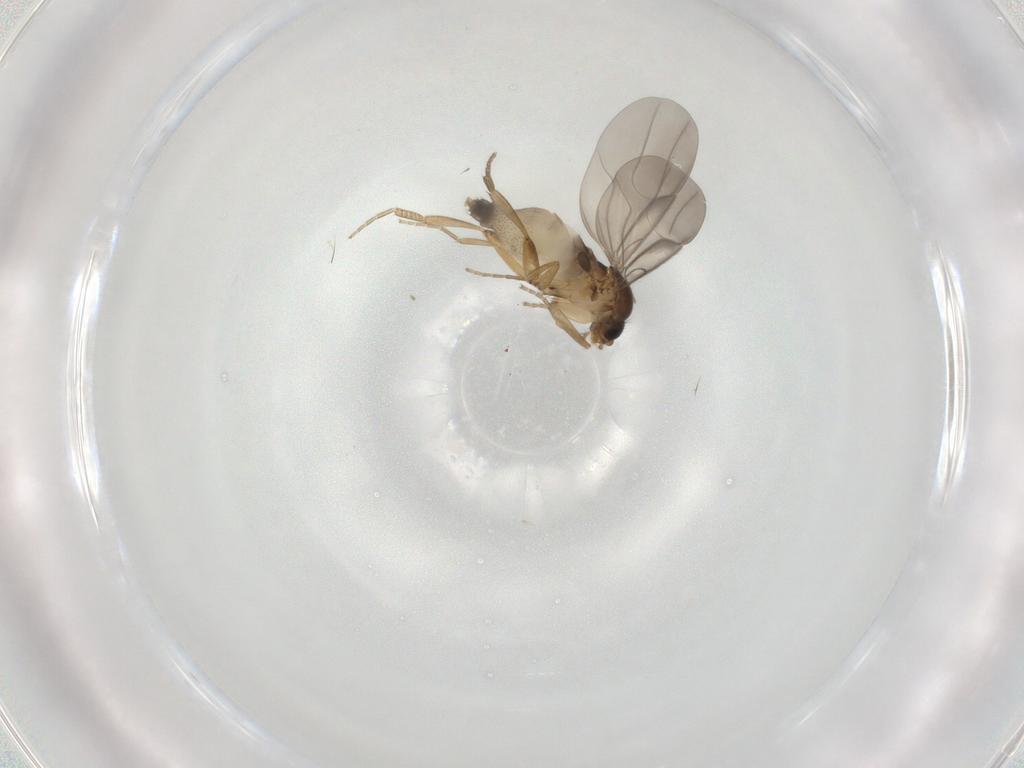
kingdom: Animalia
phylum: Arthropoda
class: Insecta
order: Diptera
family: Phoridae
